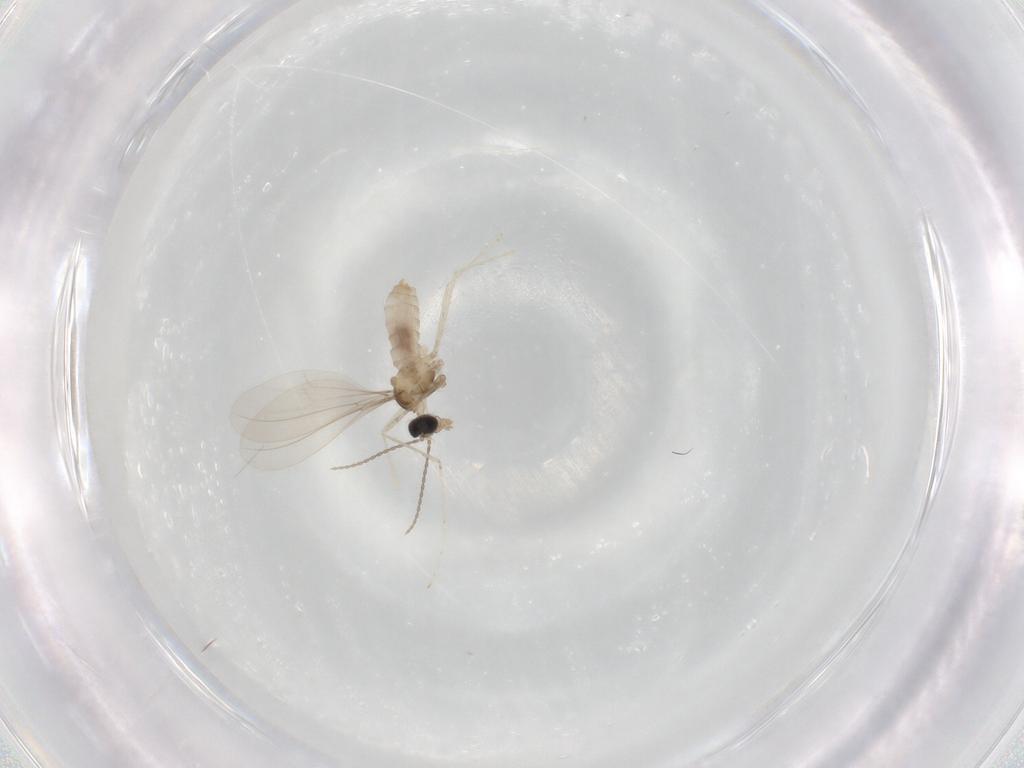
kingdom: Animalia
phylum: Arthropoda
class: Insecta
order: Diptera
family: Cecidomyiidae
